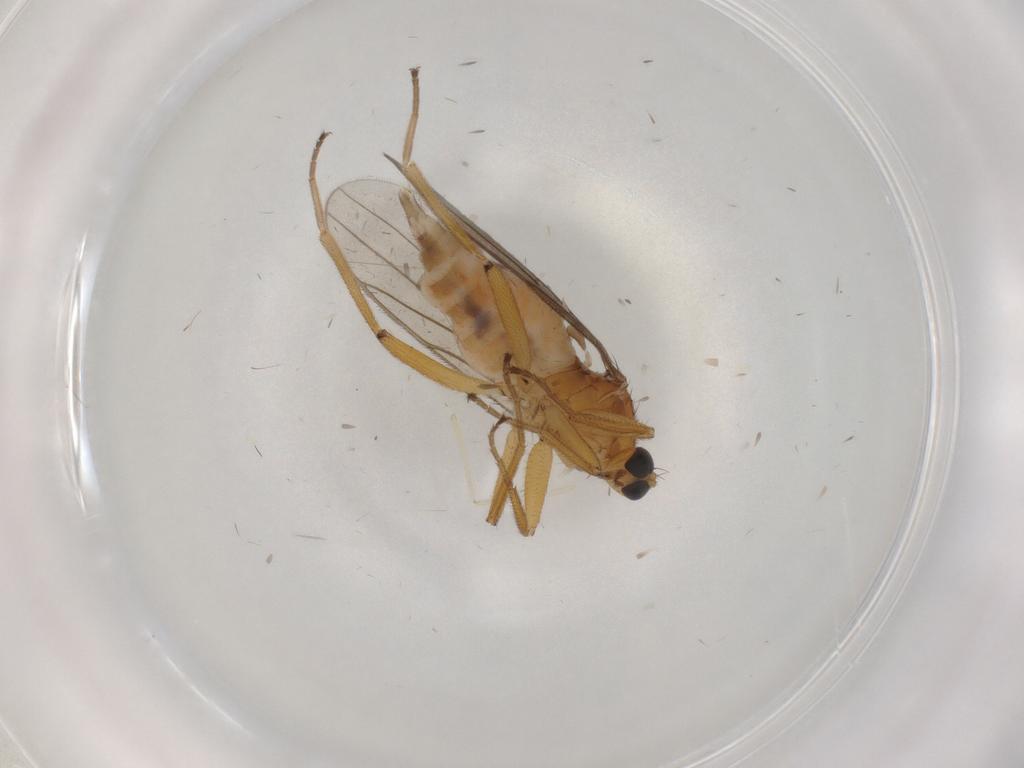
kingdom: Animalia
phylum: Arthropoda
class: Insecta
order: Diptera
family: Hybotidae
